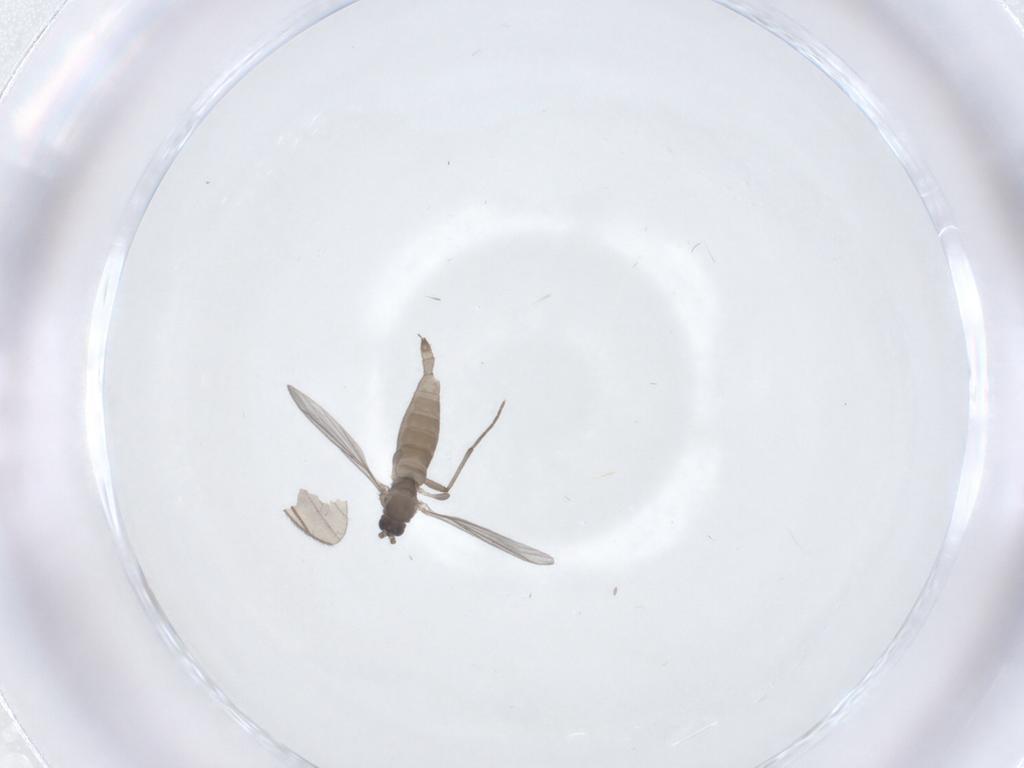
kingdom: Animalia
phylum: Arthropoda
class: Insecta
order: Diptera
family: Sciaridae
